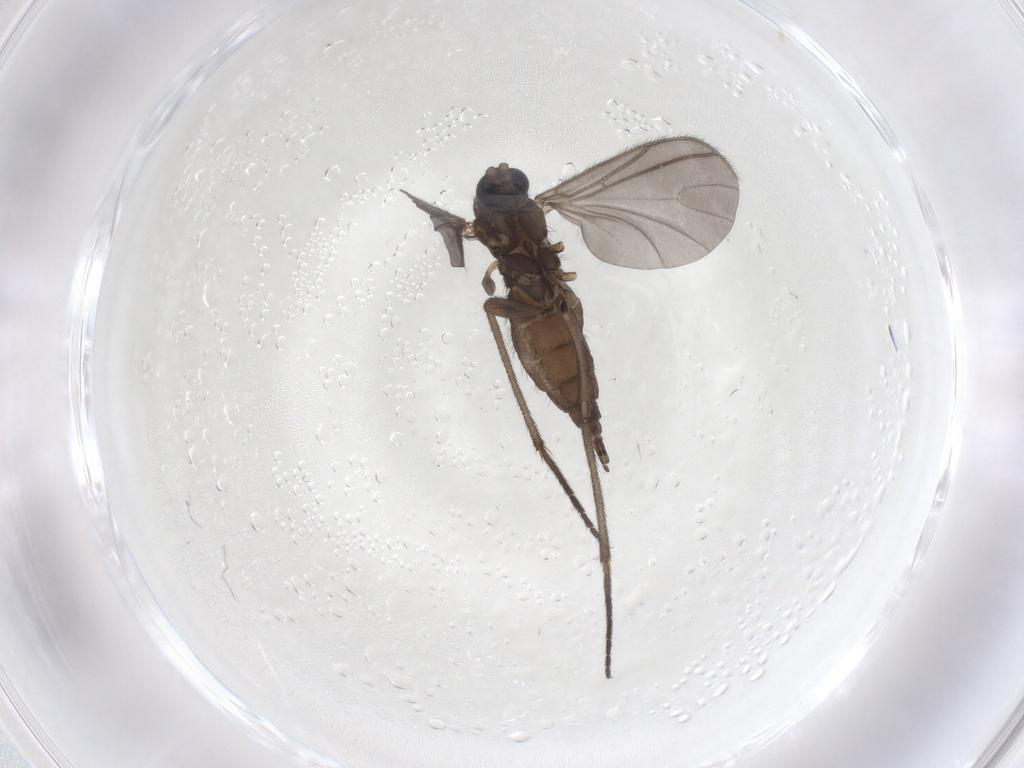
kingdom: Animalia
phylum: Arthropoda
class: Insecta
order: Diptera
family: Sciaridae
